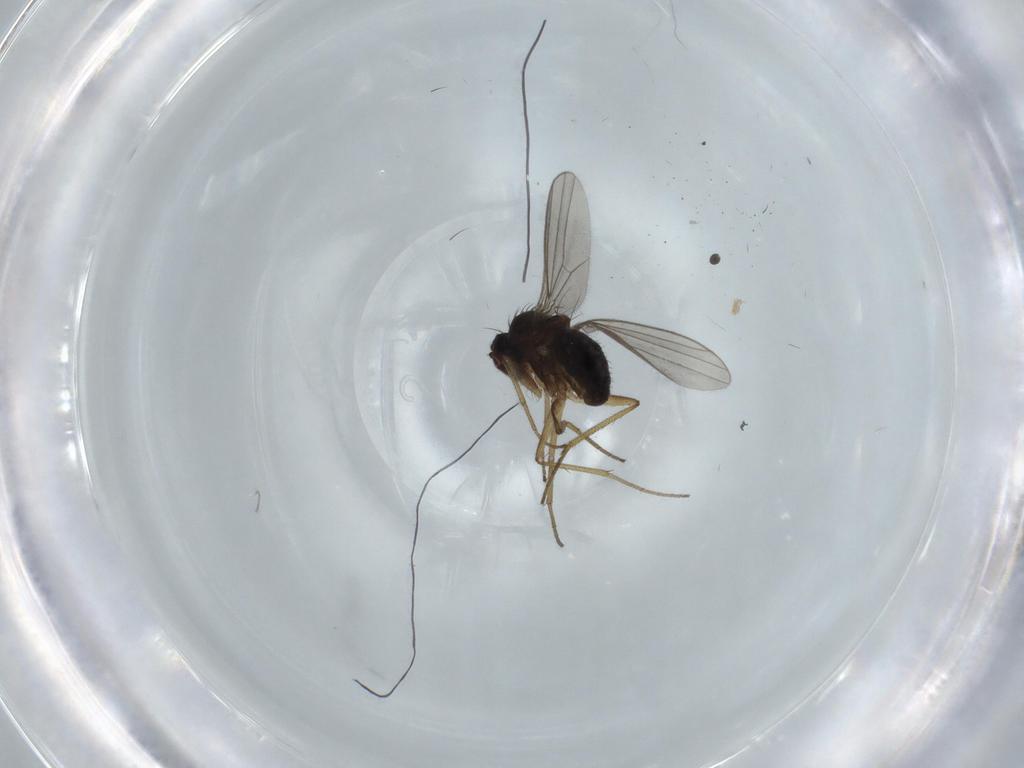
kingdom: Animalia
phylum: Arthropoda
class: Insecta
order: Diptera
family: Dolichopodidae
